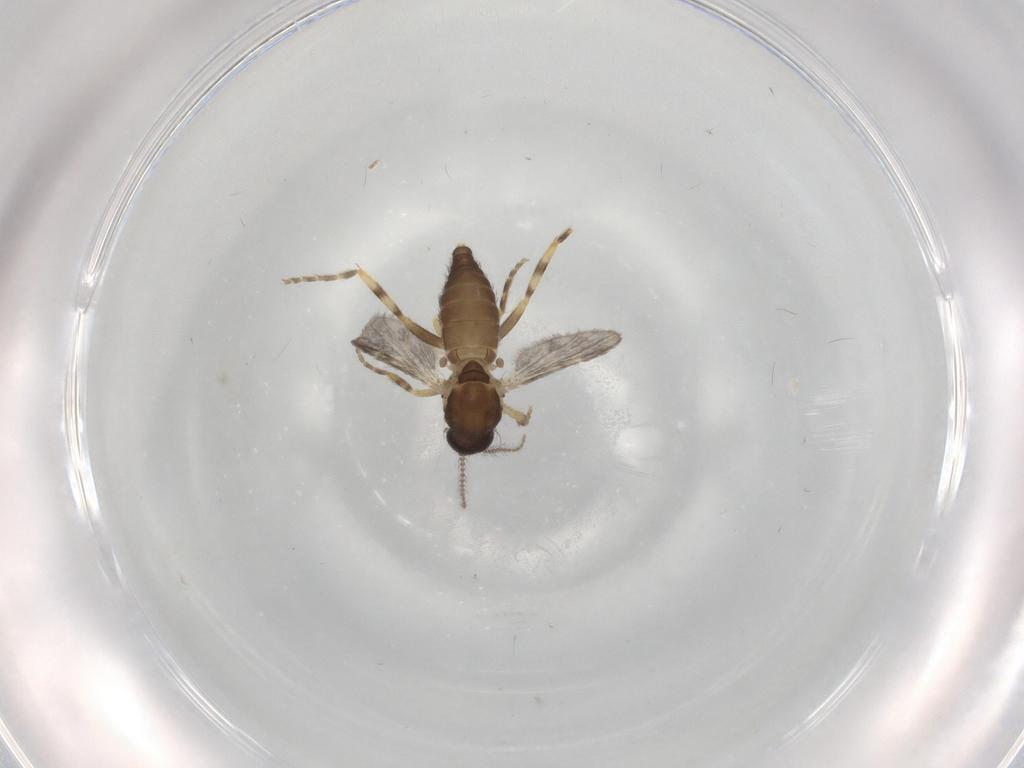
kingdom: Animalia
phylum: Arthropoda
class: Insecta
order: Diptera
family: Ceratopogonidae
